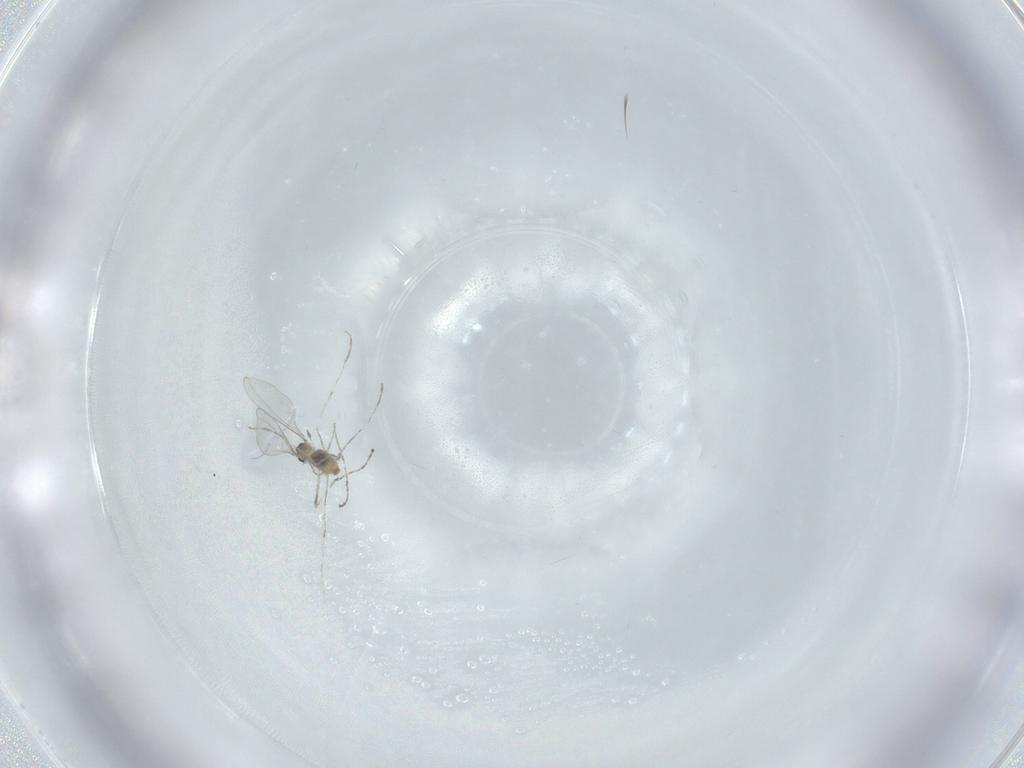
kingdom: Animalia
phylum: Arthropoda
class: Insecta
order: Diptera
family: Cecidomyiidae
